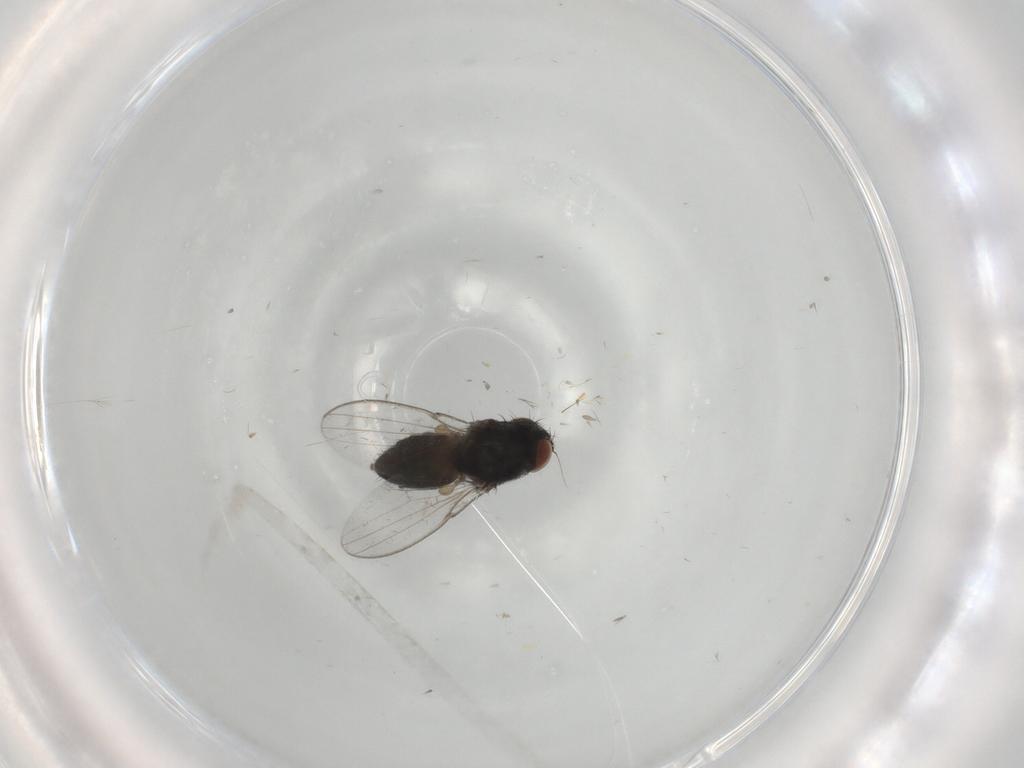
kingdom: Animalia
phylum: Arthropoda
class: Insecta
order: Diptera
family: Milichiidae
